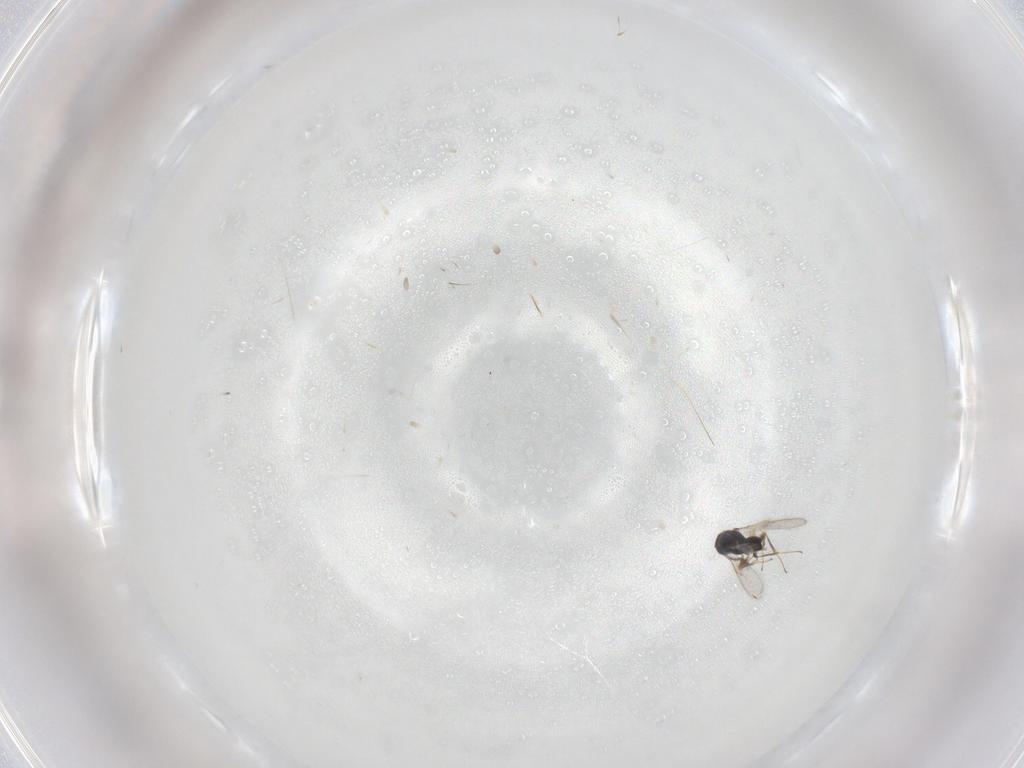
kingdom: Animalia
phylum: Arthropoda
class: Insecta
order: Hymenoptera
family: Scelionidae
